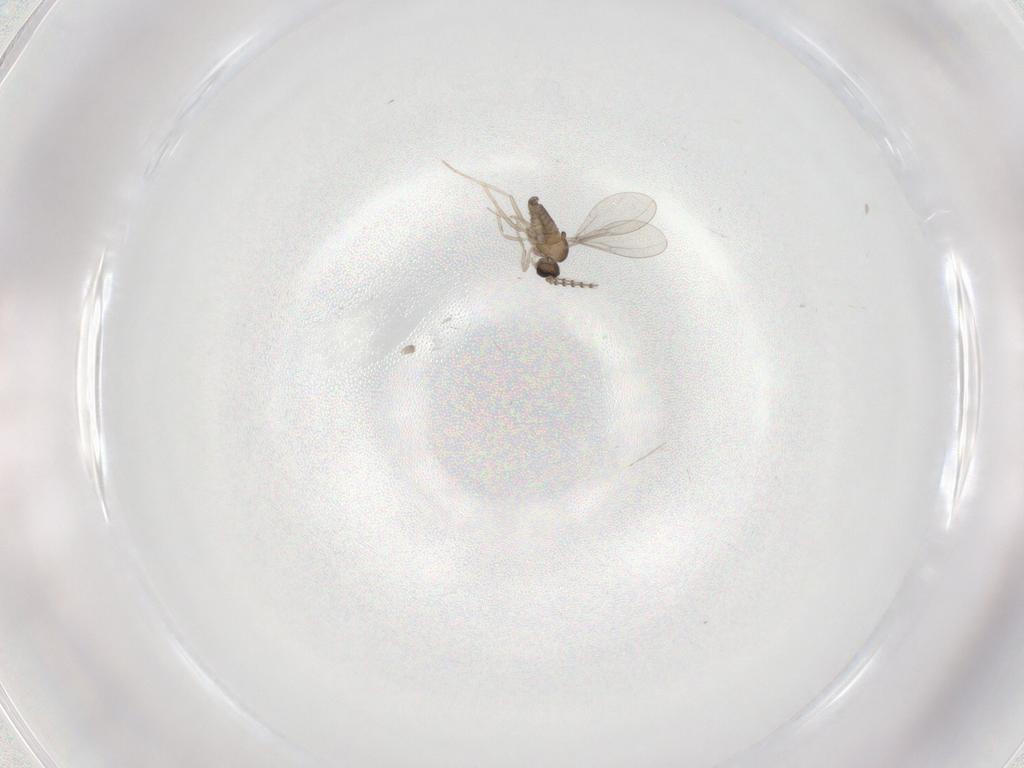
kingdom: Animalia
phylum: Arthropoda
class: Insecta
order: Diptera
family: Cecidomyiidae
